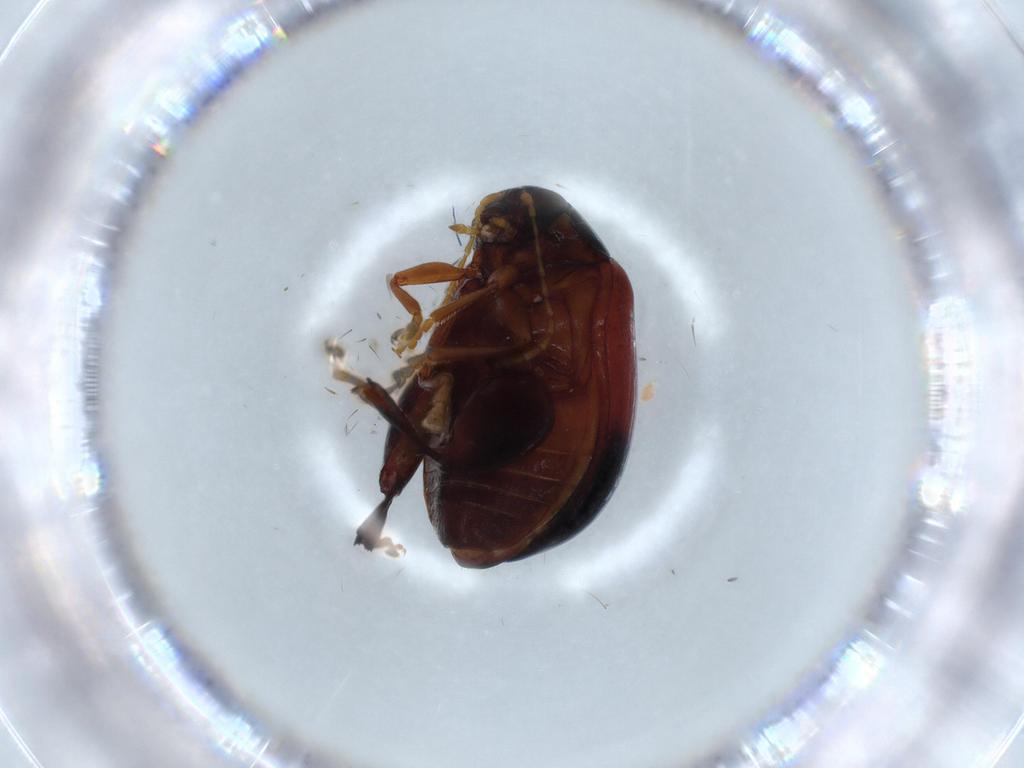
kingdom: Animalia
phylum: Arthropoda
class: Insecta
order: Coleoptera
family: Chrysomelidae
